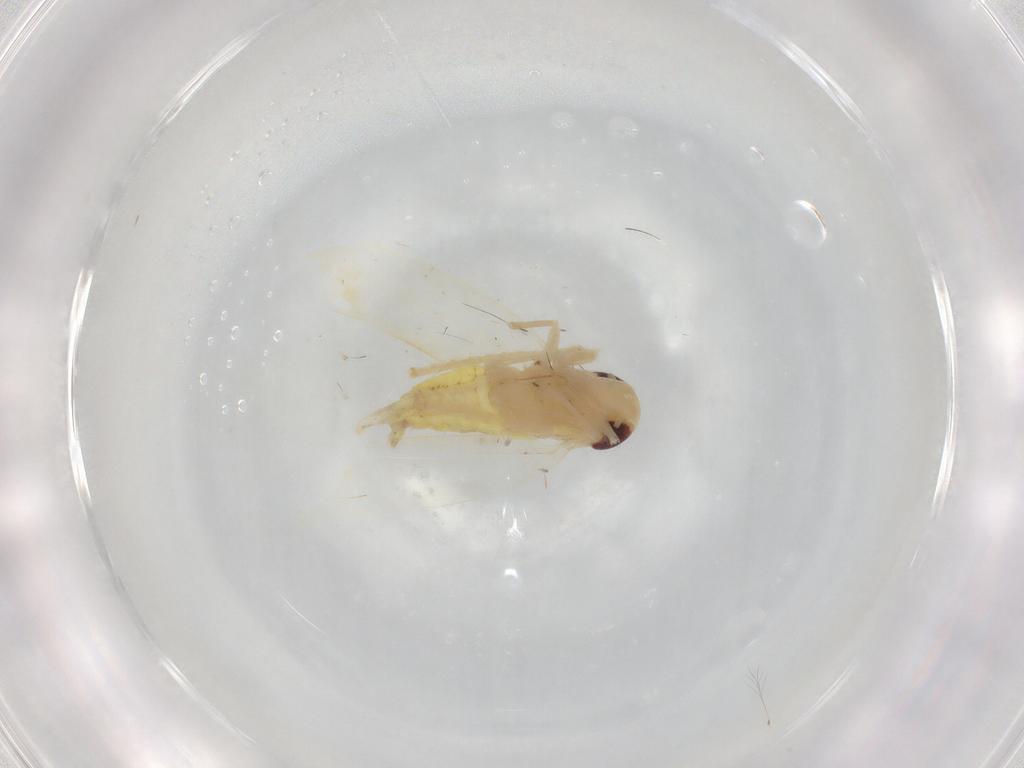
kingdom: Animalia
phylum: Arthropoda
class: Insecta
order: Hemiptera
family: Cicadellidae
